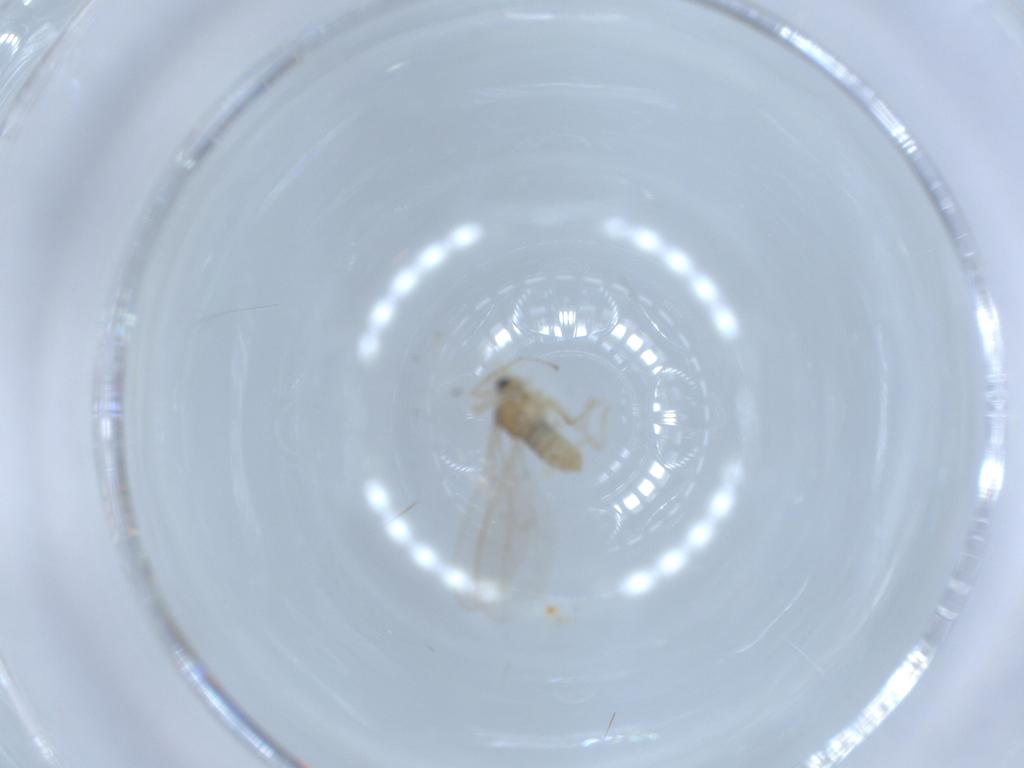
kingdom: Animalia
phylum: Arthropoda
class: Insecta
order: Diptera
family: Cecidomyiidae
